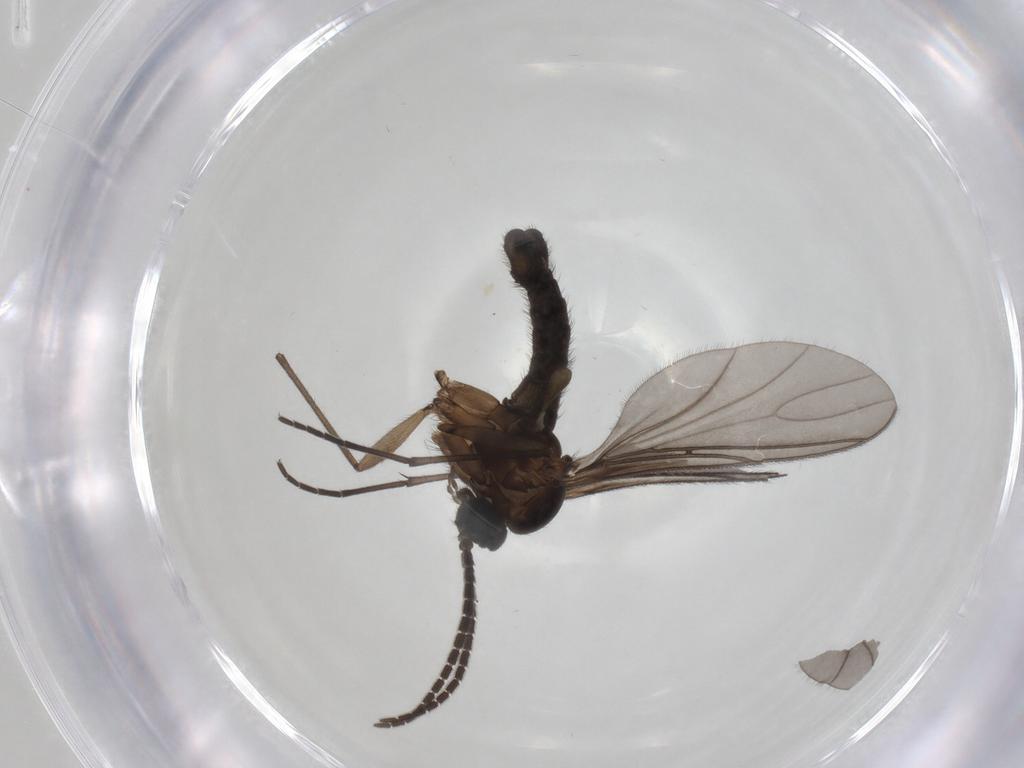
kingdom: Animalia
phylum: Arthropoda
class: Insecta
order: Diptera
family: Sciaridae
